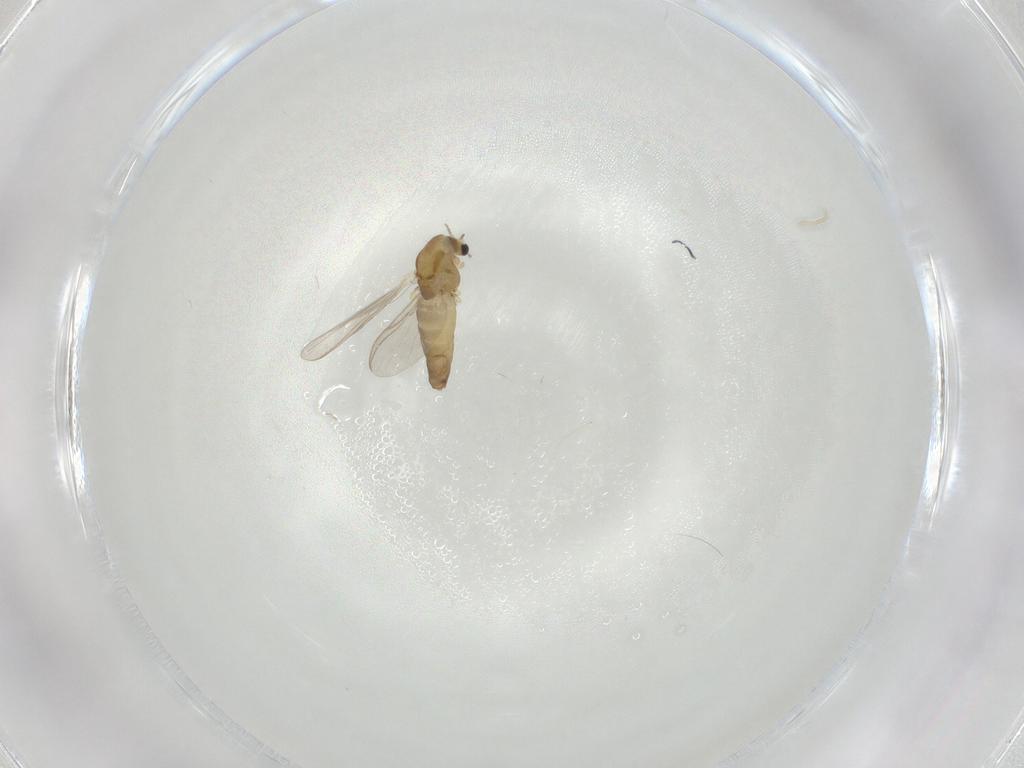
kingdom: Animalia
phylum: Arthropoda
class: Insecta
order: Diptera
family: Chironomidae
